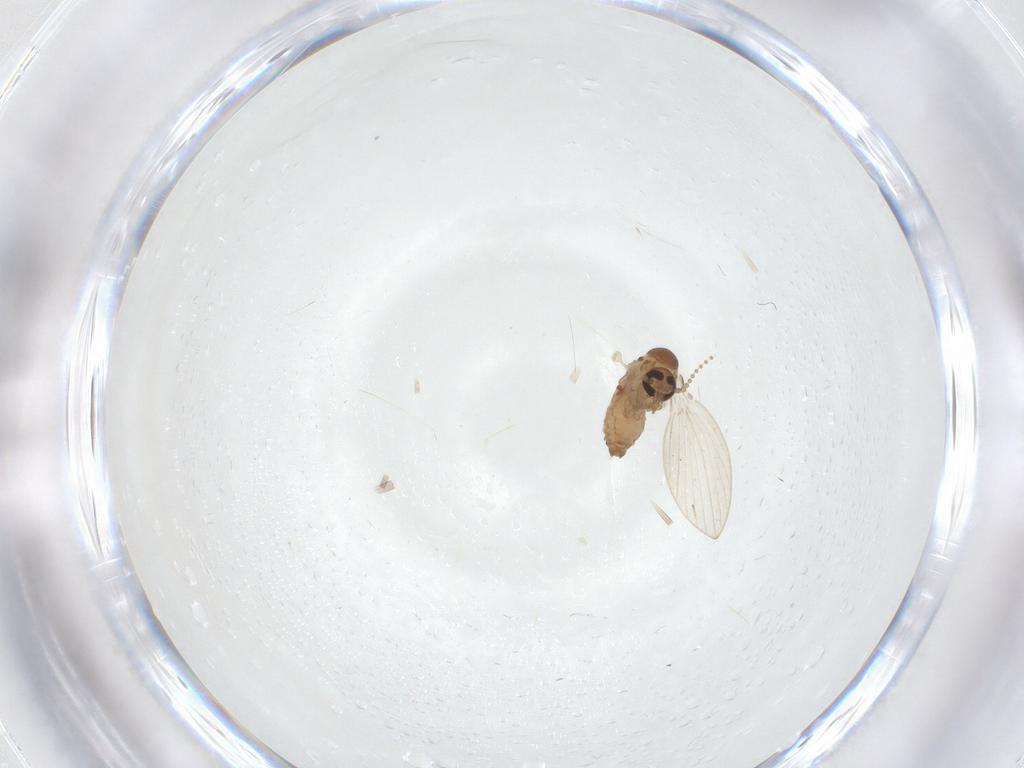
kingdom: Animalia
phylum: Arthropoda
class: Insecta
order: Diptera
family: Psychodidae
